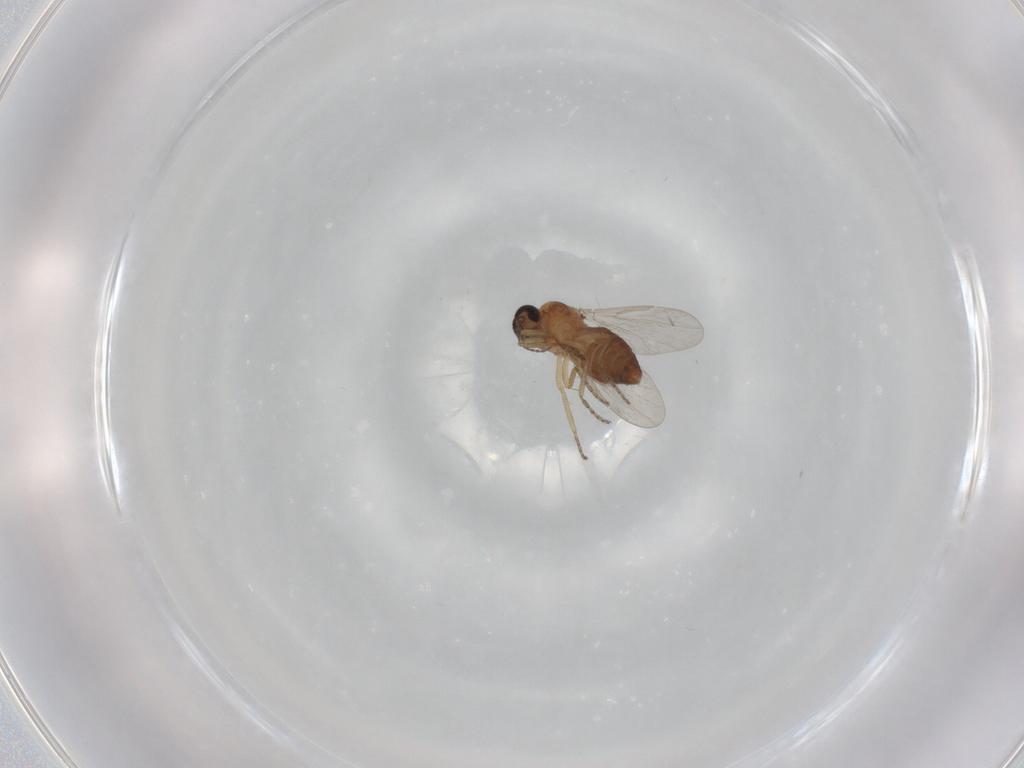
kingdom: Animalia
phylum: Arthropoda
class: Insecta
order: Diptera
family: Ceratopogonidae
